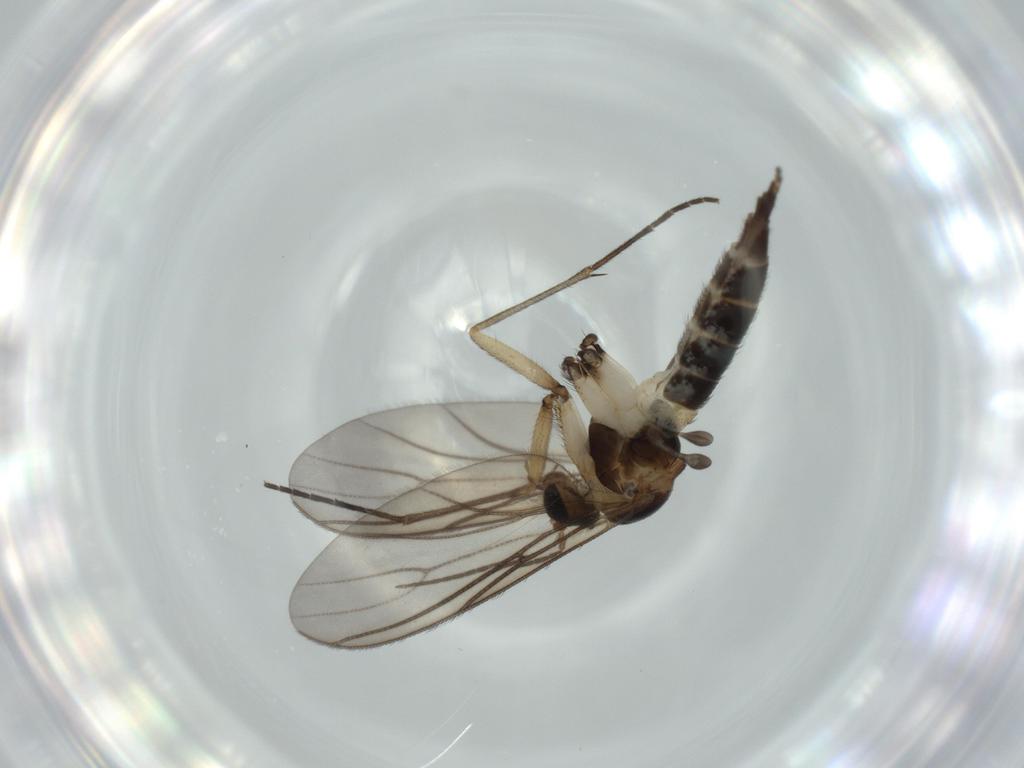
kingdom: Animalia
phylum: Arthropoda
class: Insecta
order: Diptera
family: Sciaridae
